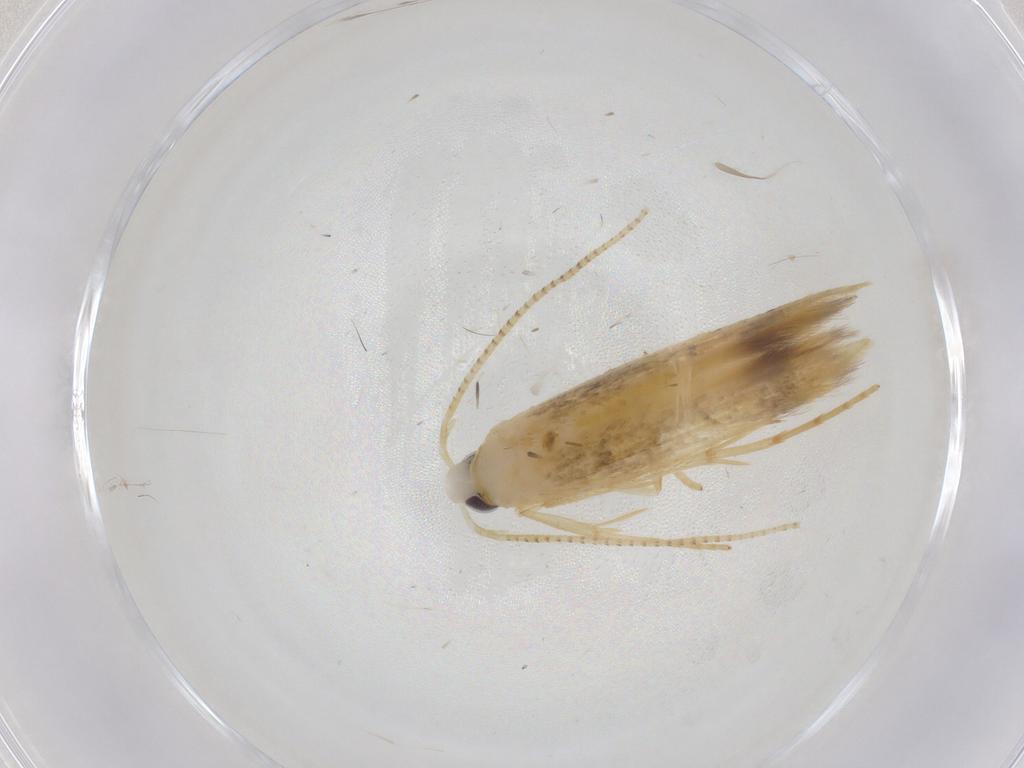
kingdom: Animalia
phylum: Arthropoda
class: Insecta
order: Lepidoptera
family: Oecophoridae
